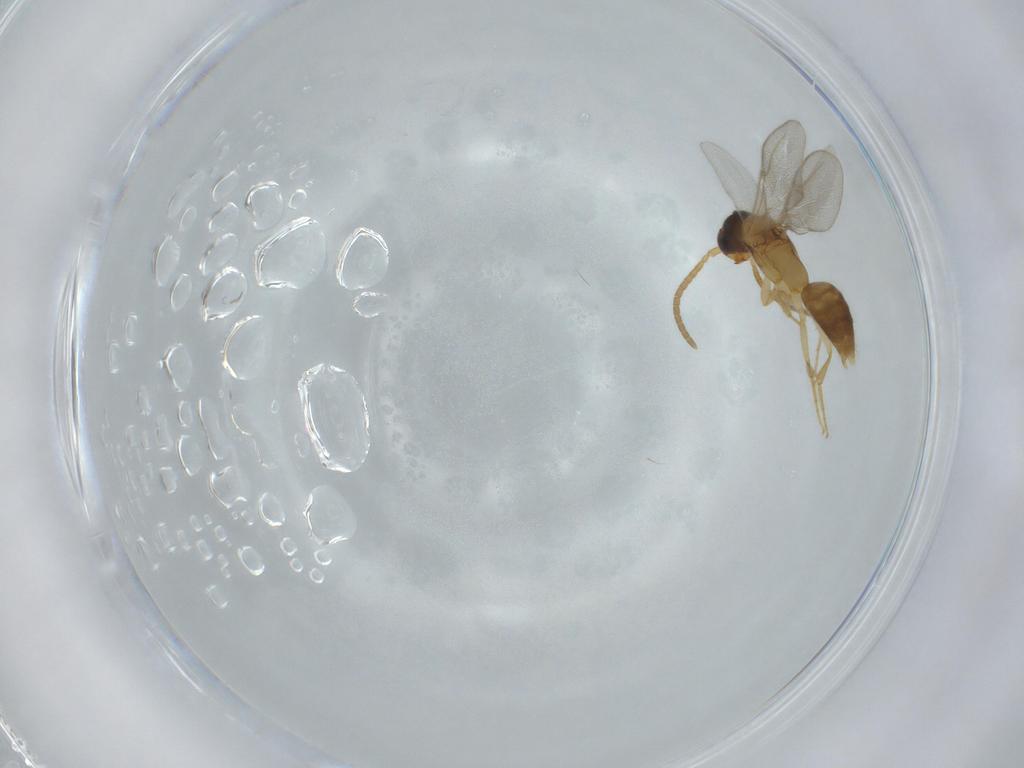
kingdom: Animalia
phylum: Arthropoda
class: Insecta
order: Hymenoptera
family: Bethylidae
